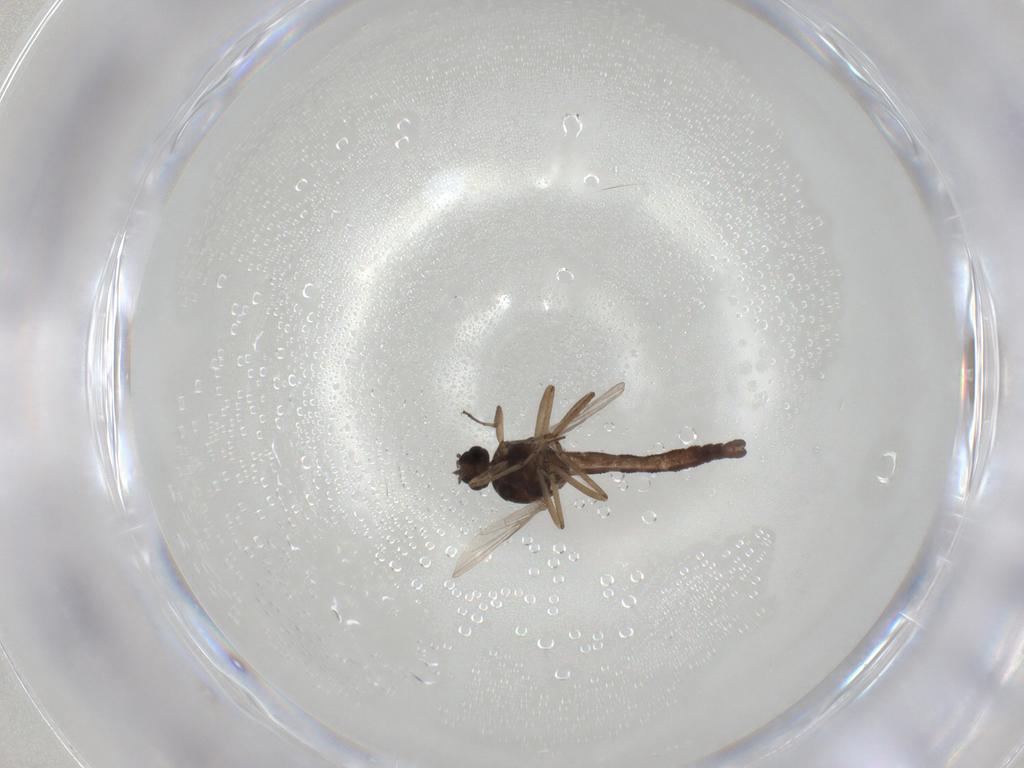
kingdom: Animalia
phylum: Arthropoda
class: Insecta
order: Diptera
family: Ceratopogonidae
